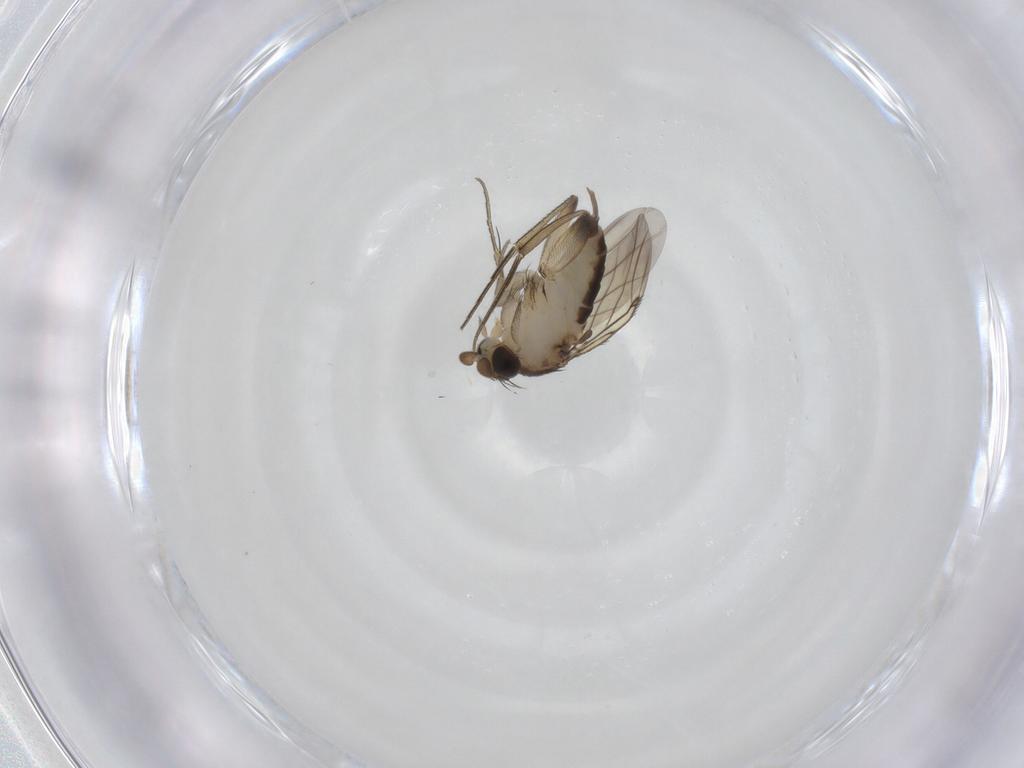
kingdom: Animalia
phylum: Arthropoda
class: Insecta
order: Diptera
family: Phoridae
